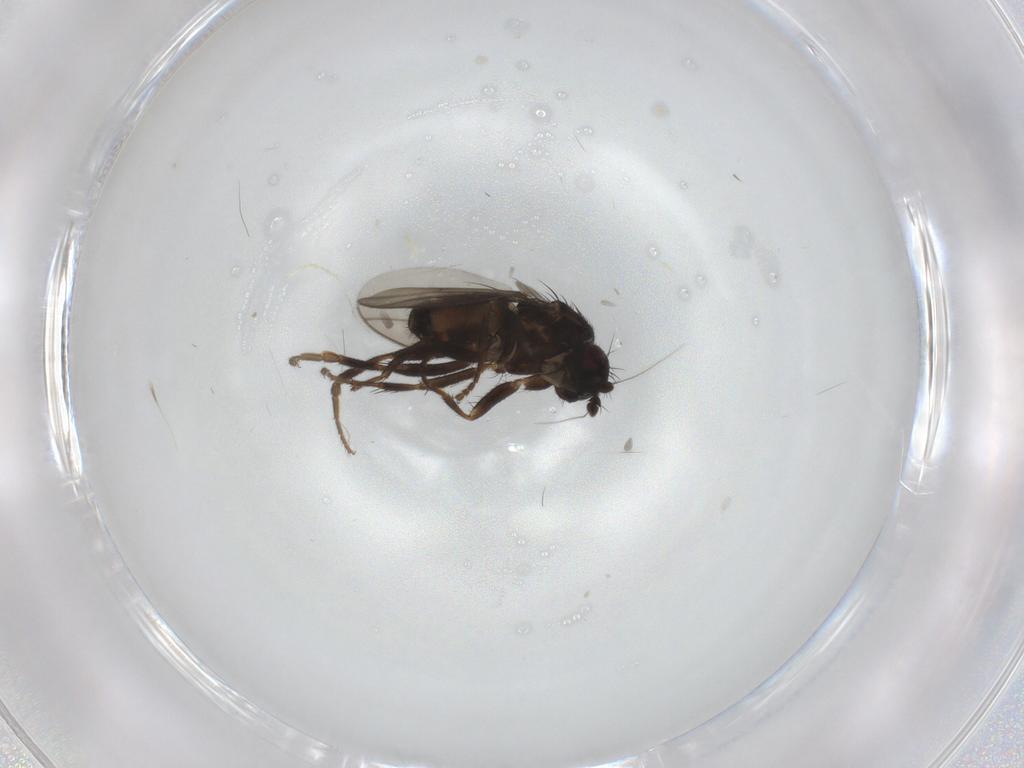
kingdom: Animalia
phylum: Arthropoda
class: Insecta
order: Diptera
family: Sphaeroceridae
